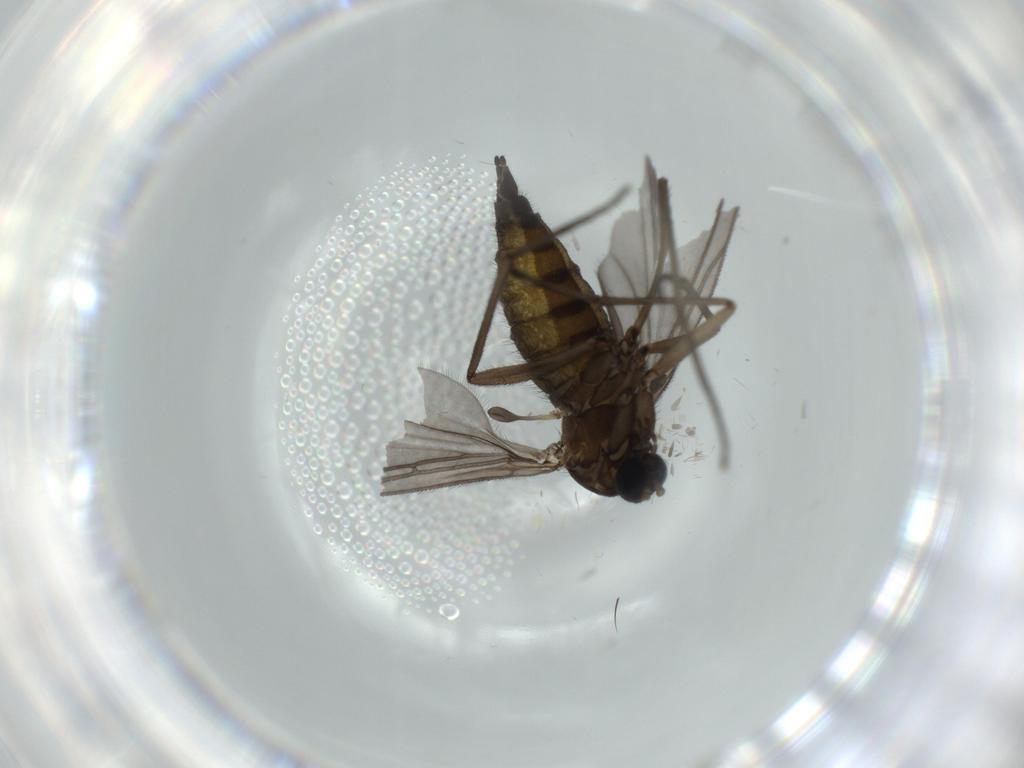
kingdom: Animalia
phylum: Arthropoda
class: Insecta
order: Diptera
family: Sciaridae
